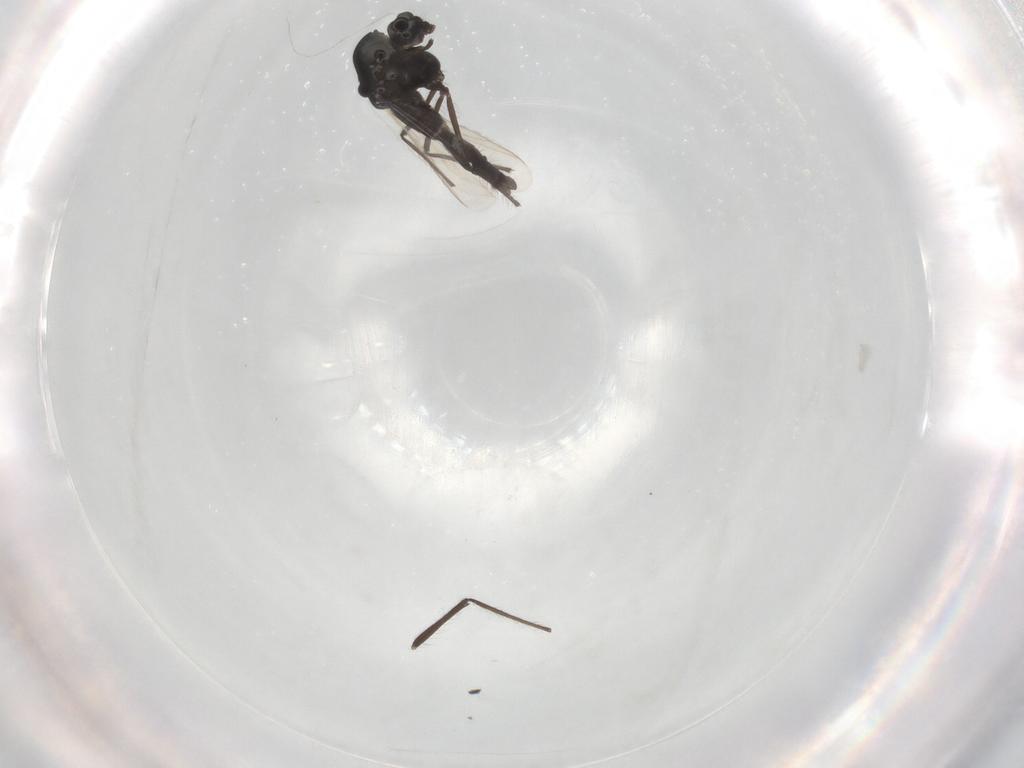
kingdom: Animalia
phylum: Arthropoda
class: Insecta
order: Diptera
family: Chironomidae
